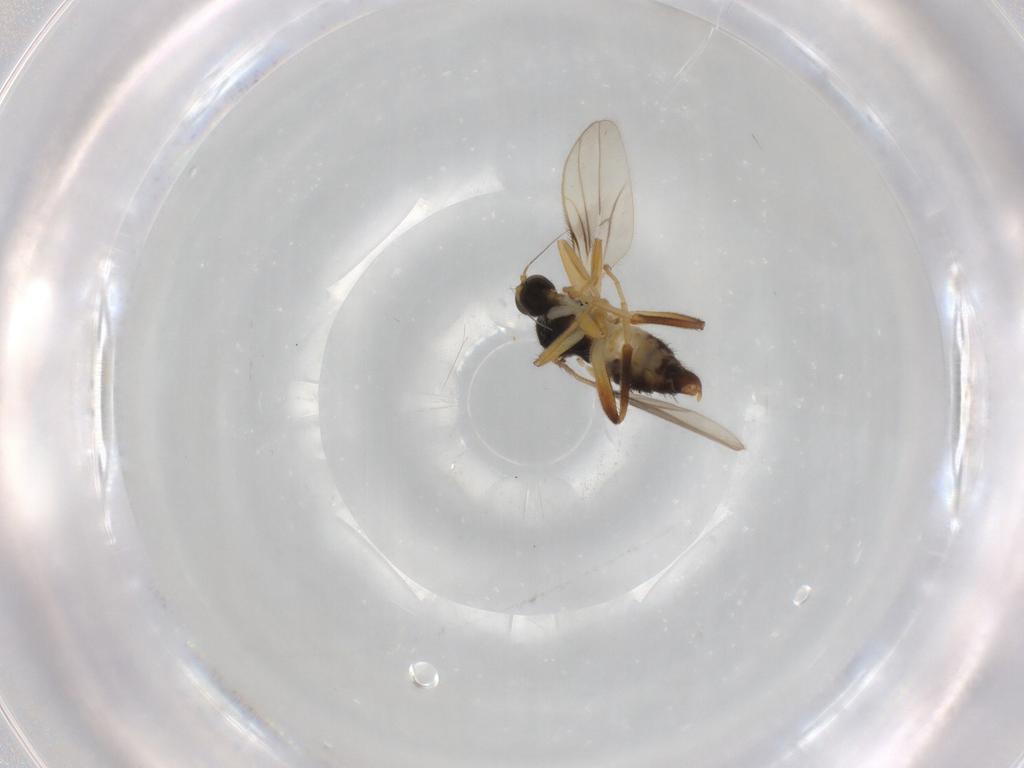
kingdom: Animalia
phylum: Arthropoda
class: Insecta
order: Diptera
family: Hybotidae
